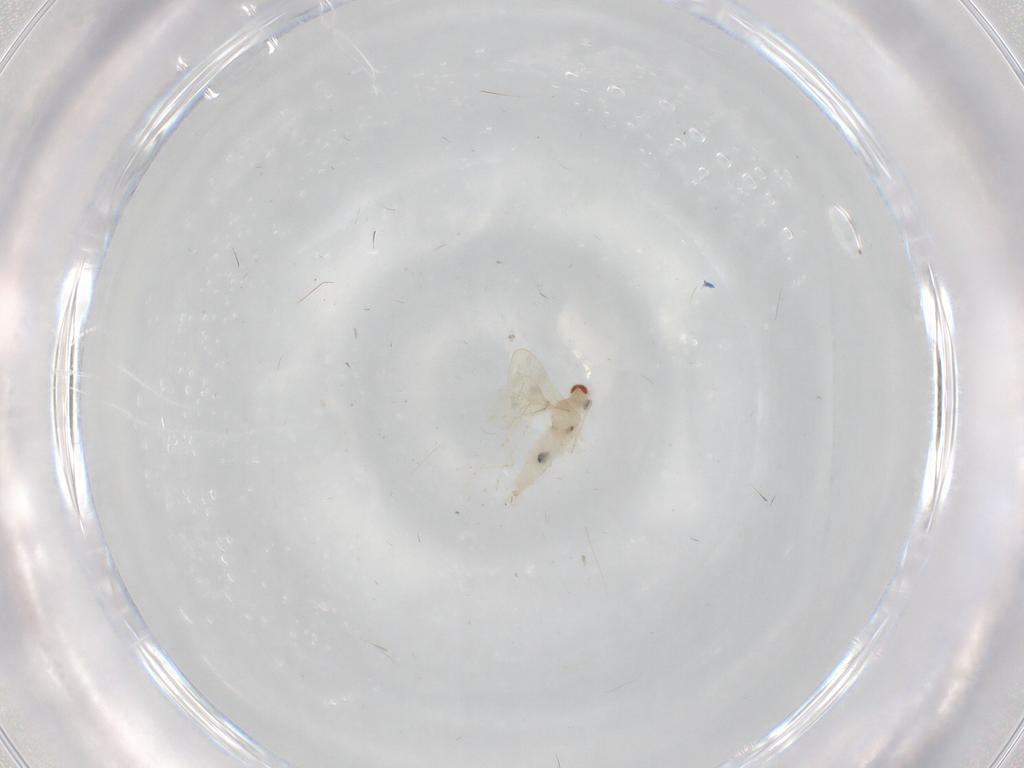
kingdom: Animalia
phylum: Arthropoda
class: Insecta
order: Diptera
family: Cecidomyiidae
